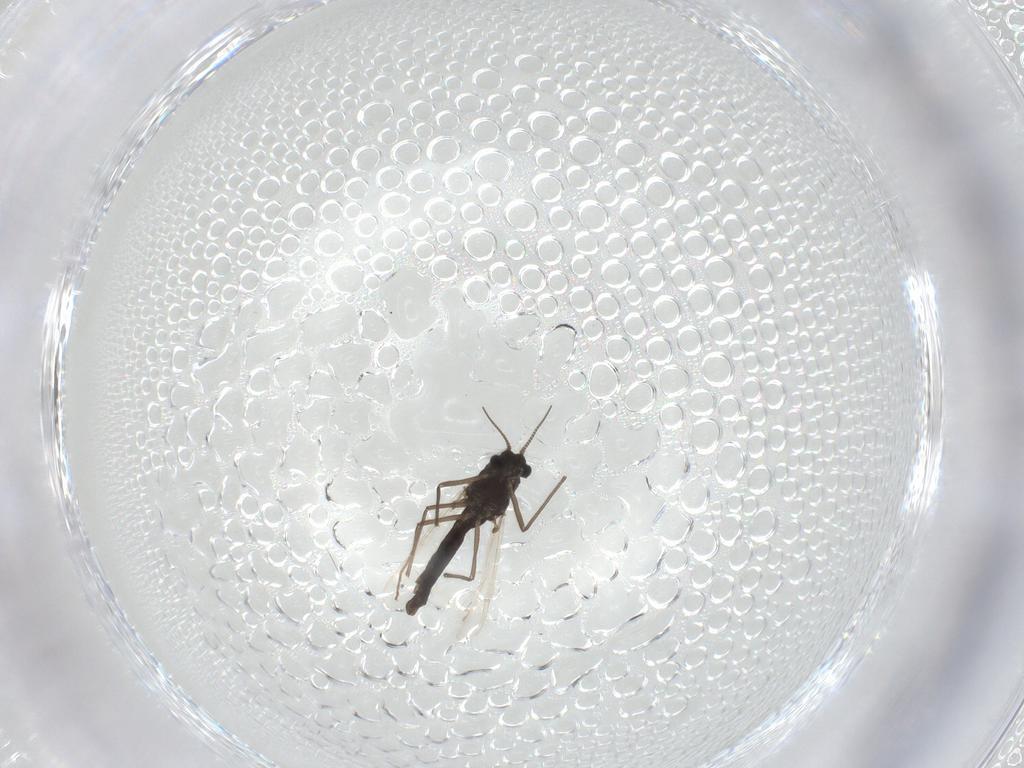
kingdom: Animalia
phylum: Arthropoda
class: Insecta
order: Diptera
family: Chironomidae
